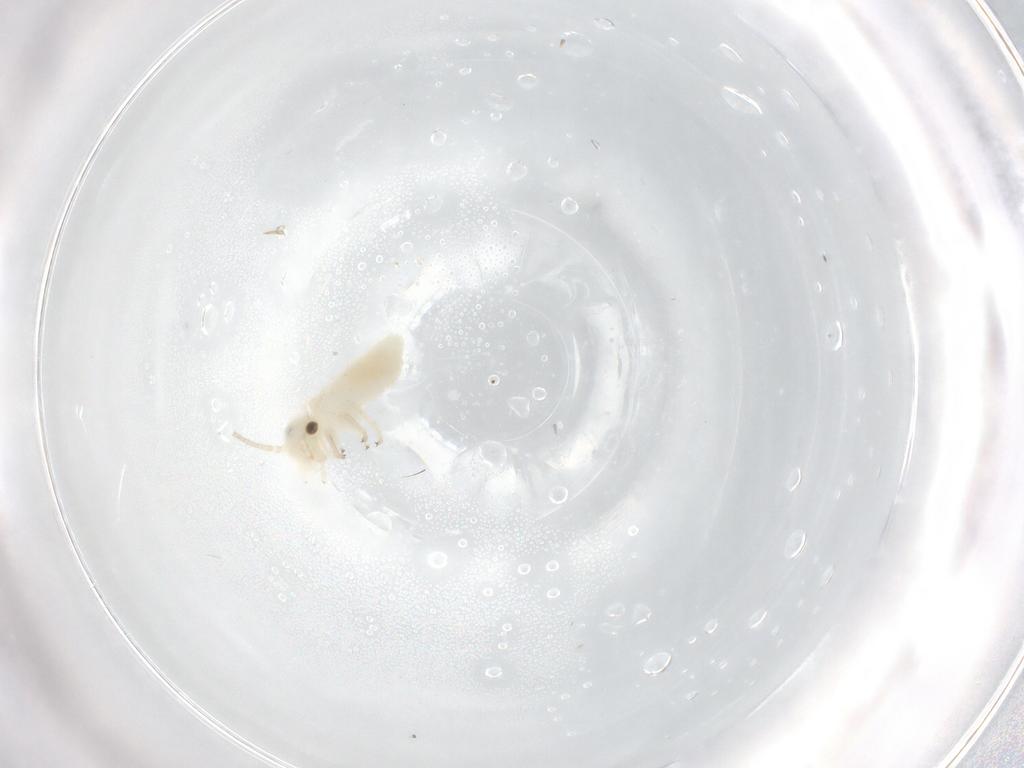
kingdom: Animalia
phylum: Arthropoda
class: Insecta
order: Psocodea
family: Caeciliusidae
